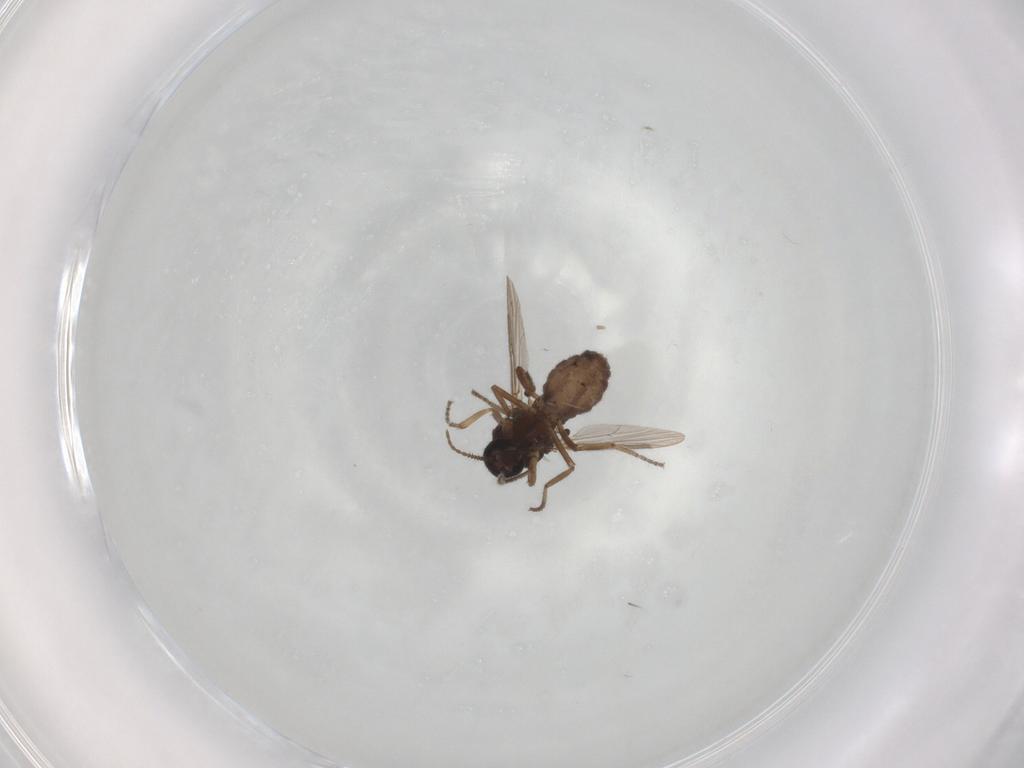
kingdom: Animalia
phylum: Arthropoda
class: Insecta
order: Diptera
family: Ceratopogonidae
